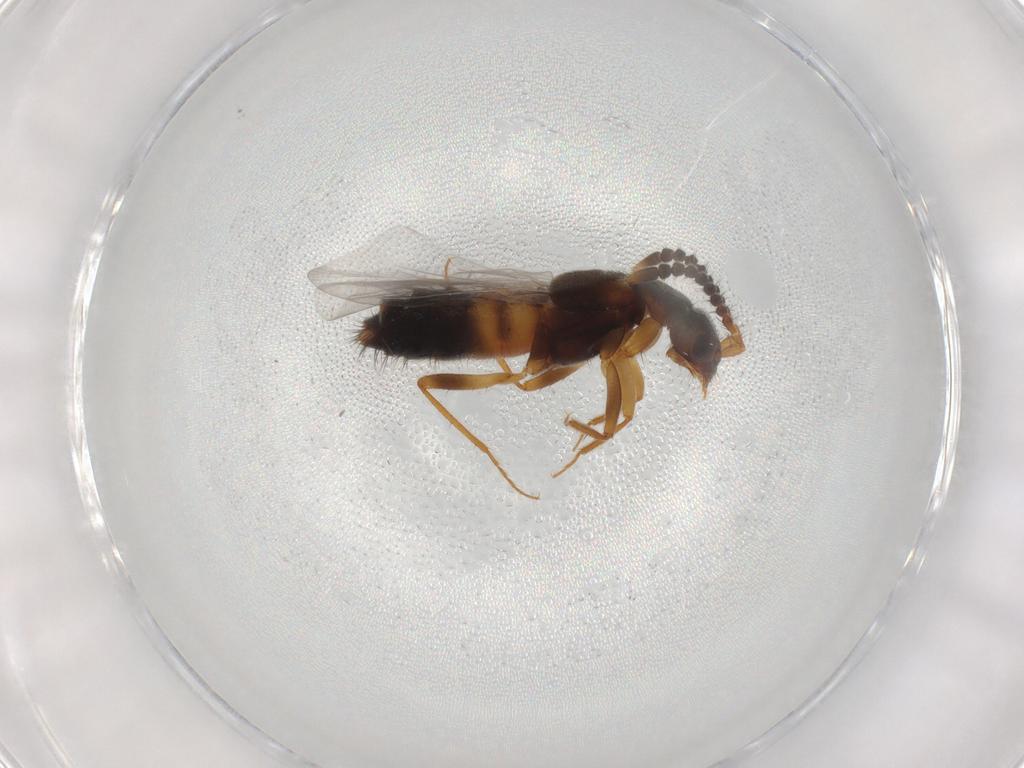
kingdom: Animalia
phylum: Arthropoda
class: Insecta
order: Coleoptera
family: Staphylinidae
